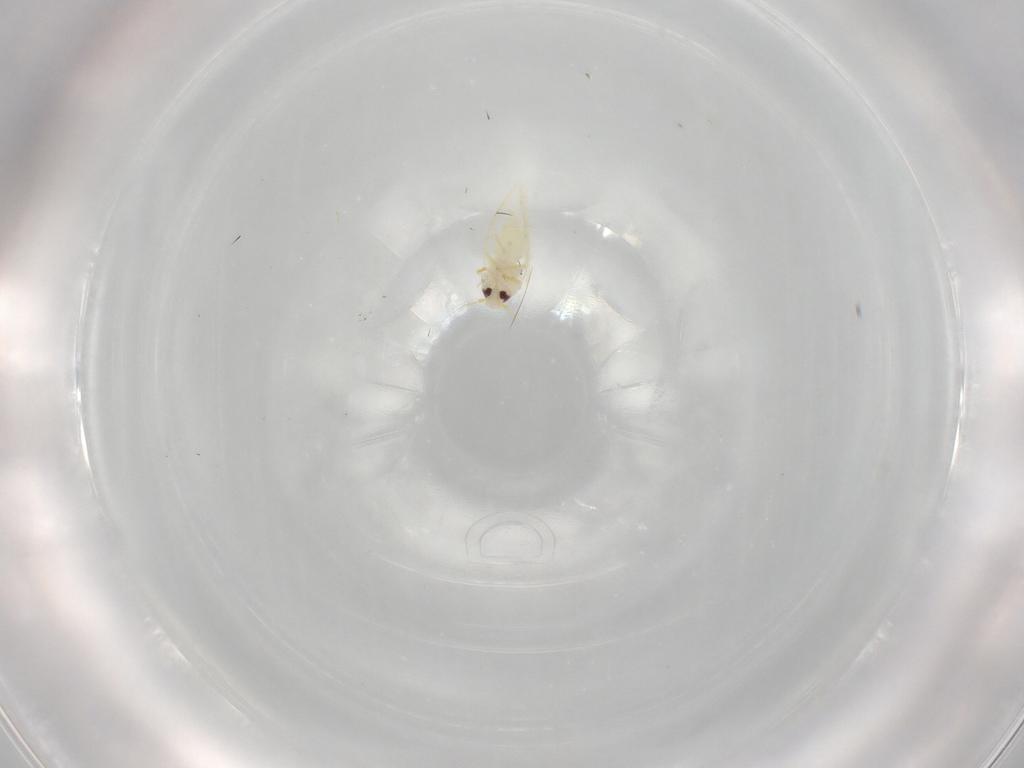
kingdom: Animalia
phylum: Arthropoda
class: Insecta
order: Hemiptera
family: Aleyrodidae
